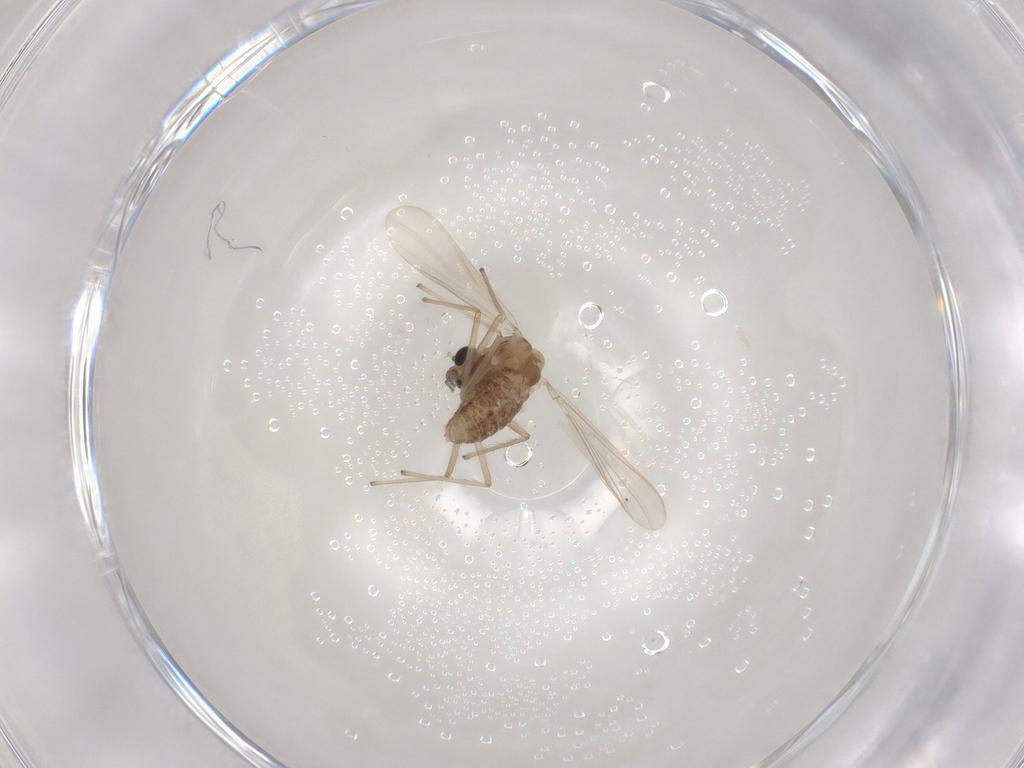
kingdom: Animalia
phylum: Arthropoda
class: Insecta
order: Diptera
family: Chironomidae
